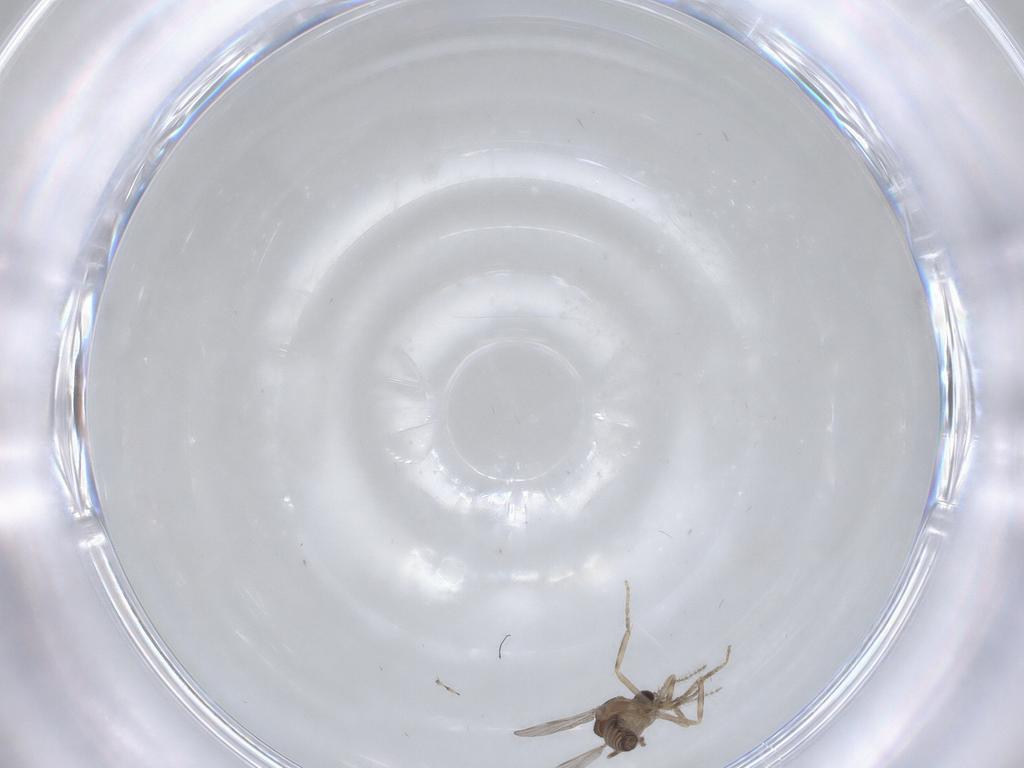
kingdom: Animalia
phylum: Arthropoda
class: Insecta
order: Diptera
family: Ceratopogonidae
